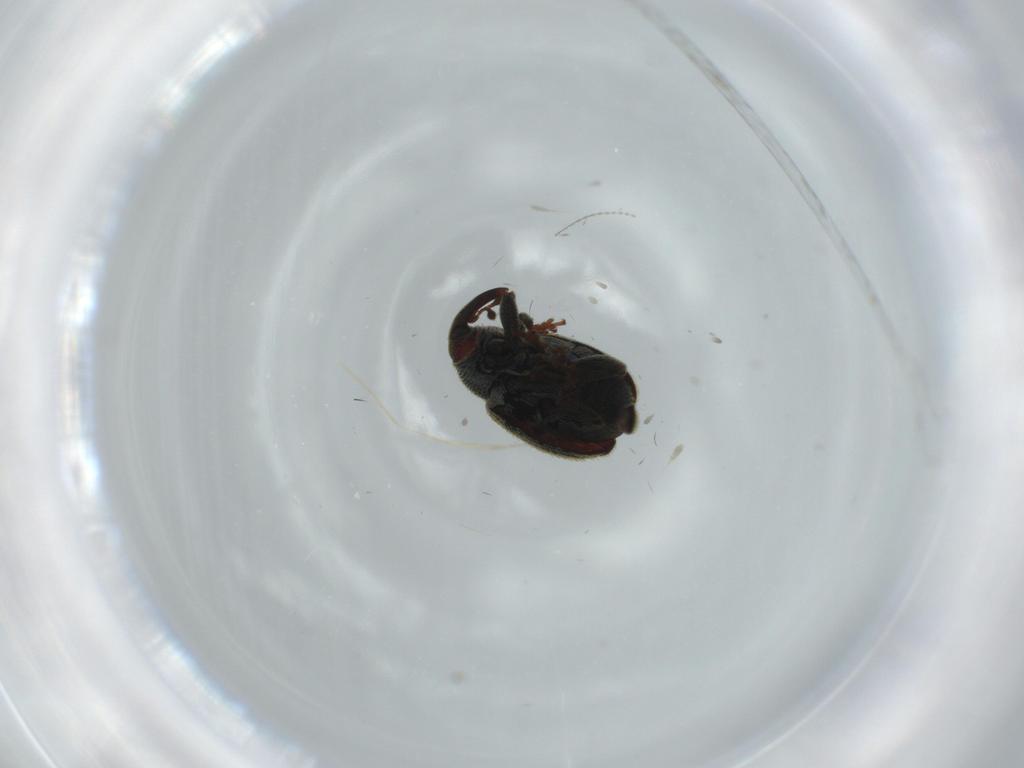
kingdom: Animalia
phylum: Arthropoda
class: Insecta
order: Coleoptera
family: Curculionidae
